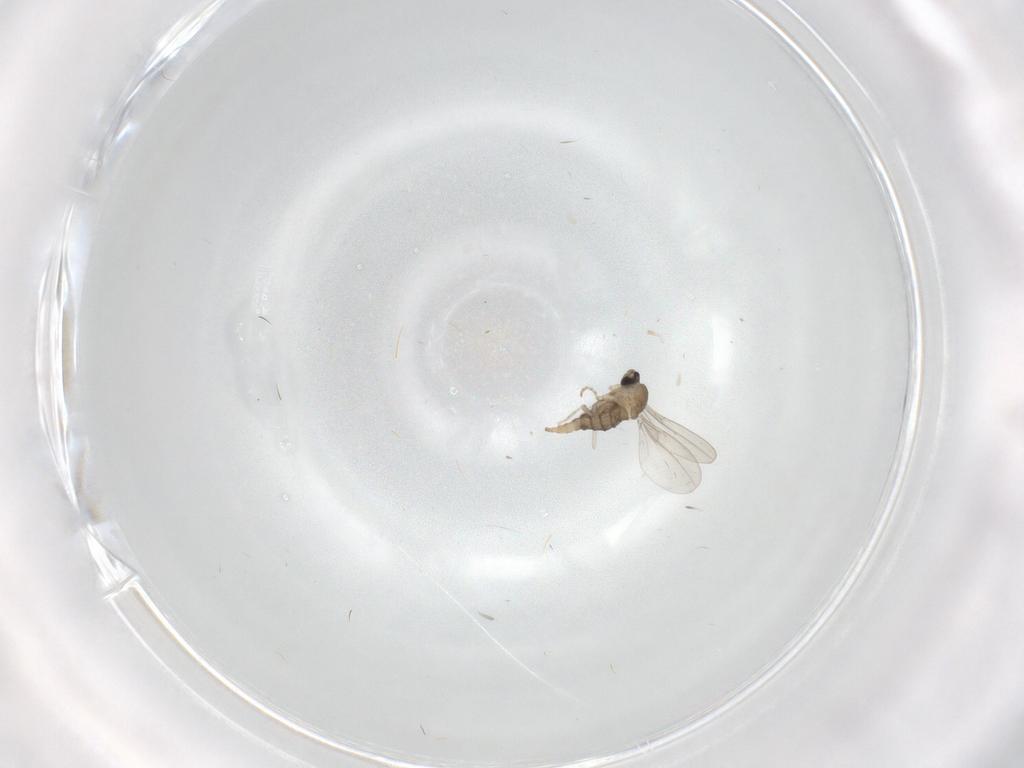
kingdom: Animalia
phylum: Arthropoda
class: Insecta
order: Diptera
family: Cecidomyiidae
